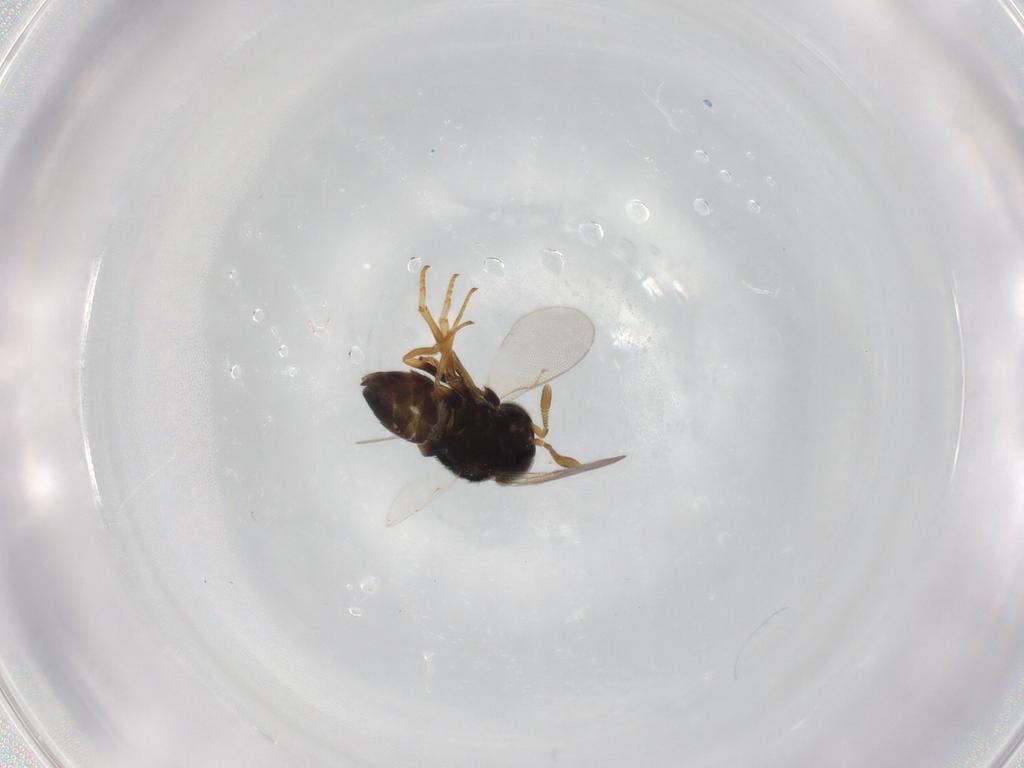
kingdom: Animalia
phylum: Arthropoda
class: Insecta
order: Hymenoptera
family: Encyrtidae
